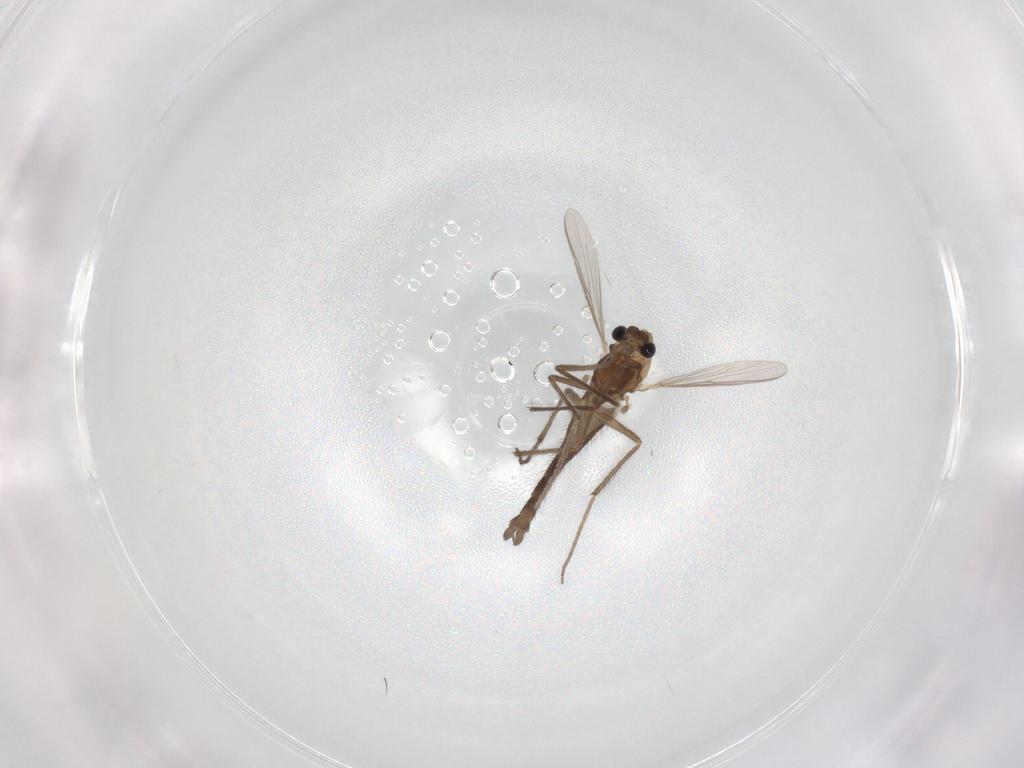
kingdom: Animalia
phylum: Arthropoda
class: Insecta
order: Diptera
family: Chironomidae
